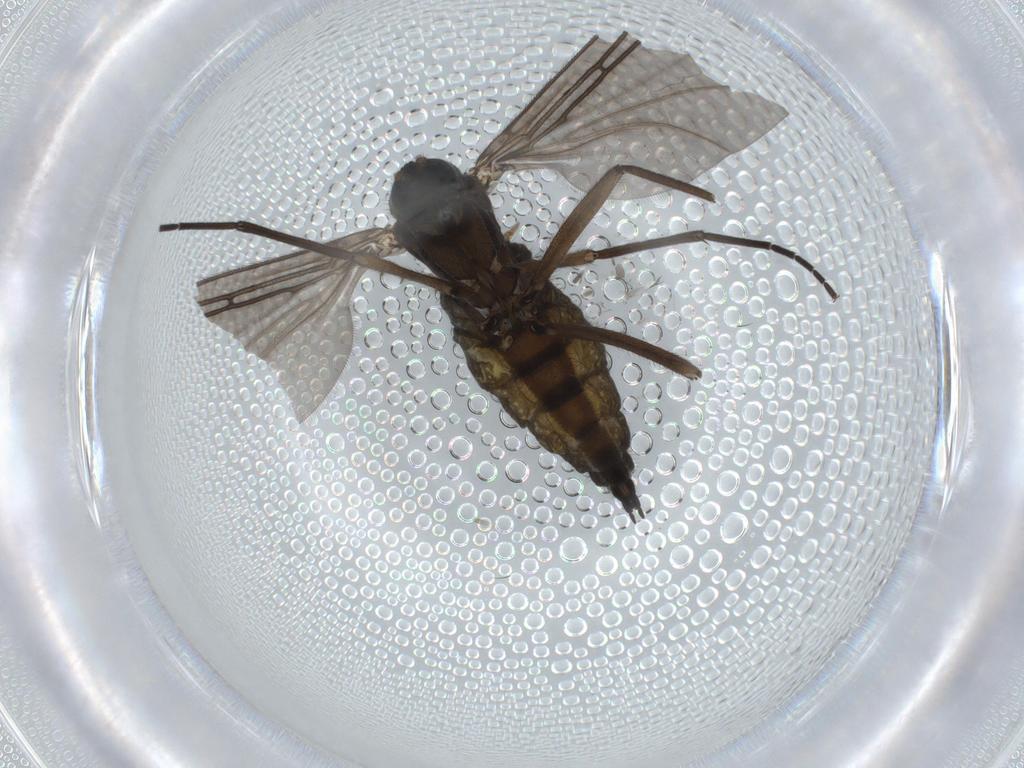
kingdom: Animalia
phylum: Arthropoda
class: Insecta
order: Diptera
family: Sciaridae
